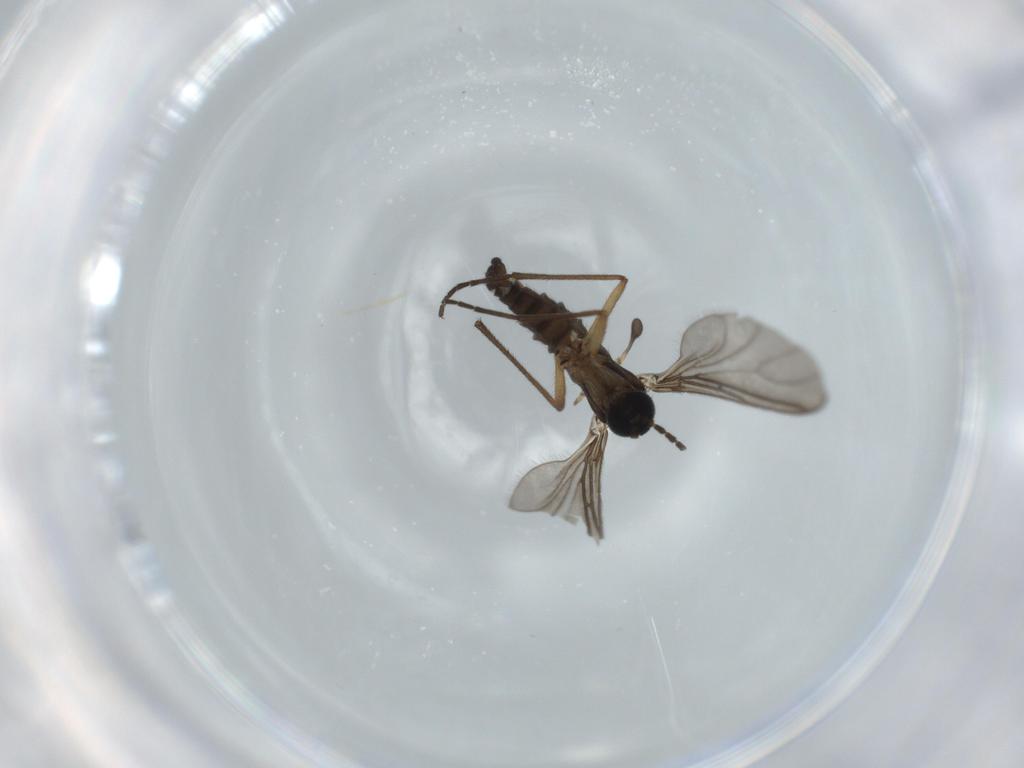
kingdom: Animalia
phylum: Arthropoda
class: Insecta
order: Diptera
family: Sciaridae
